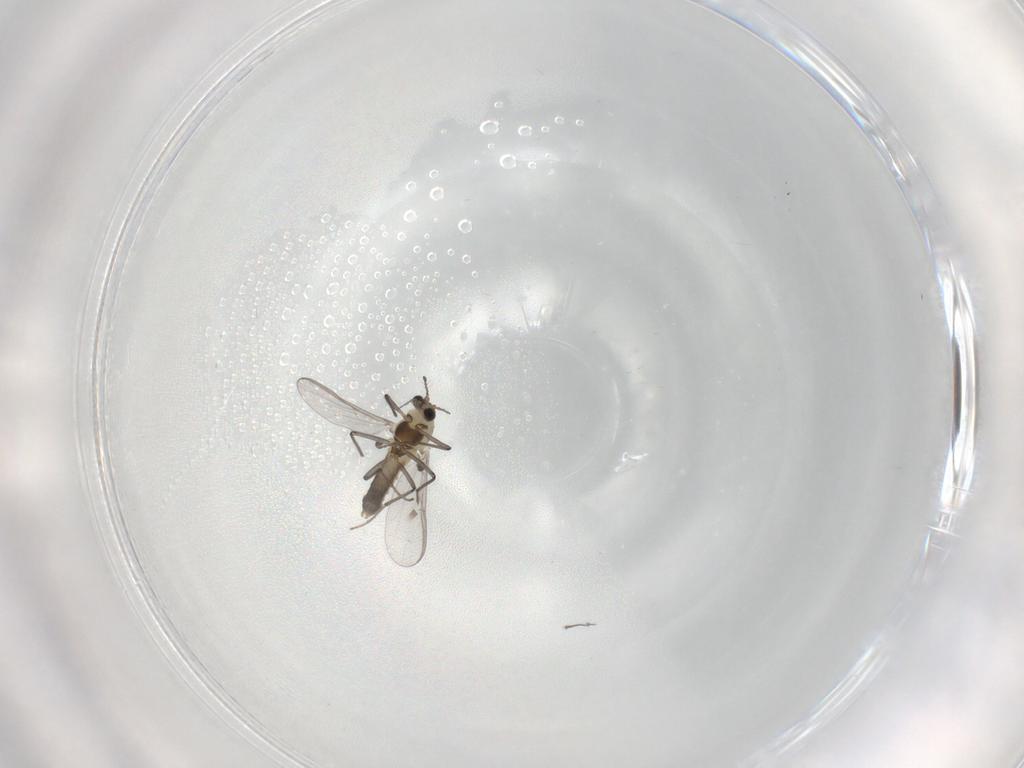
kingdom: Animalia
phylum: Arthropoda
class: Insecta
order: Diptera
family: Chironomidae
